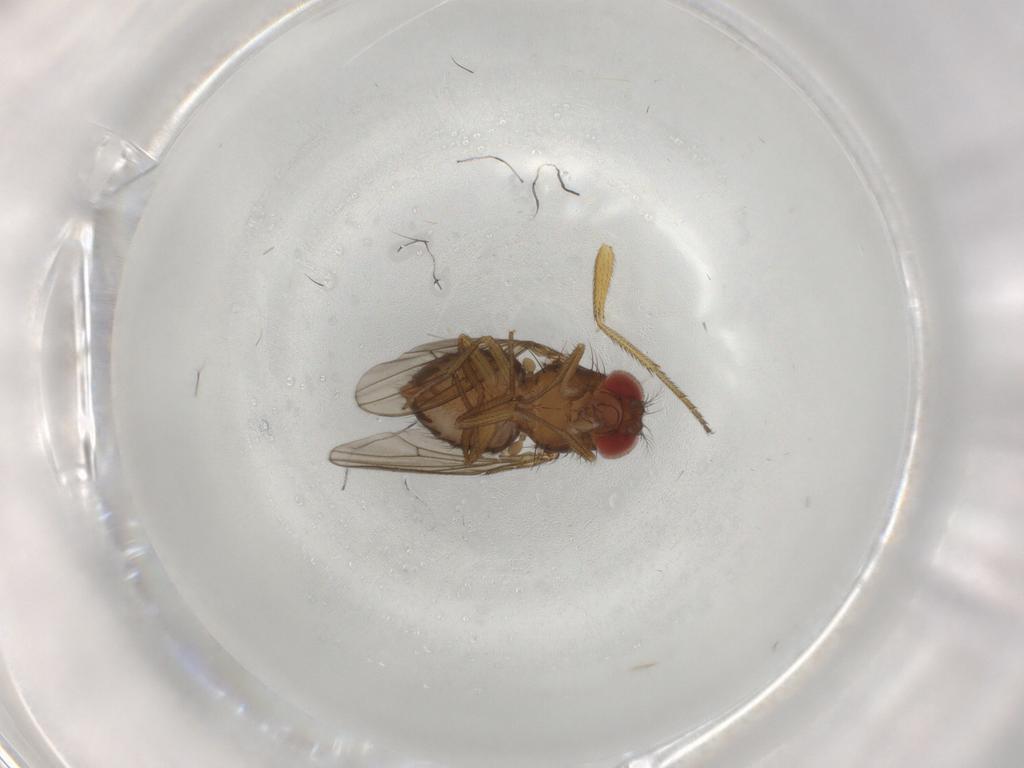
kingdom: Animalia
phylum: Arthropoda
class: Insecta
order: Diptera
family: Drosophilidae
